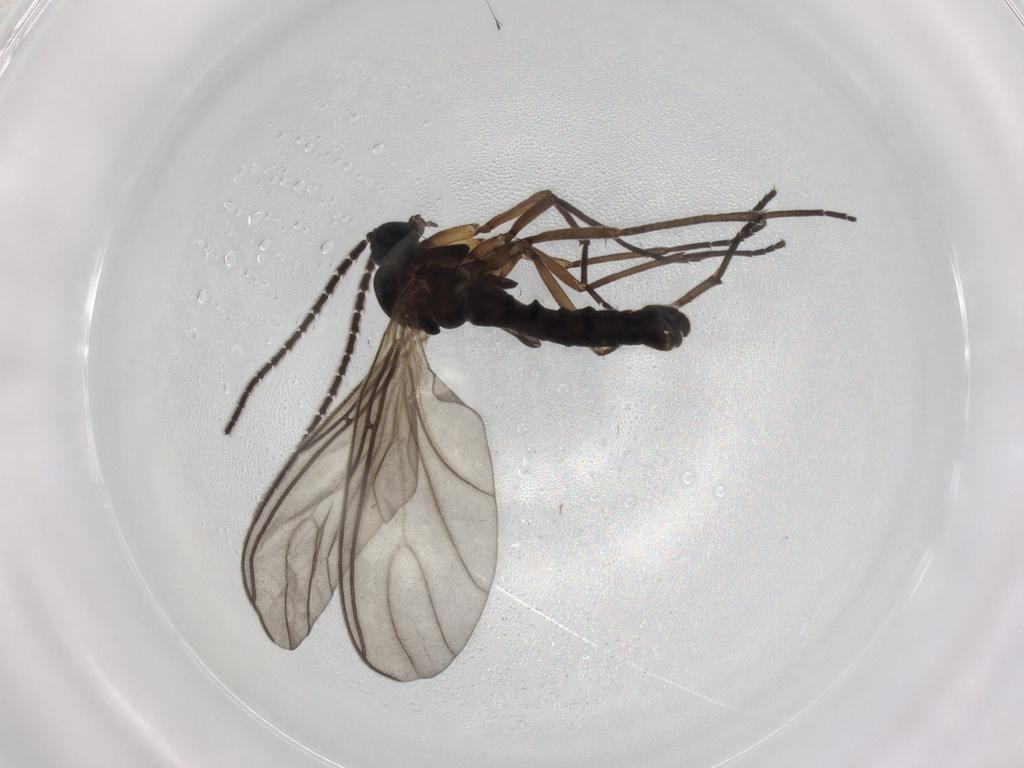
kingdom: Animalia
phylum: Arthropoda
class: Insecta
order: Diptera
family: Sciaridae
